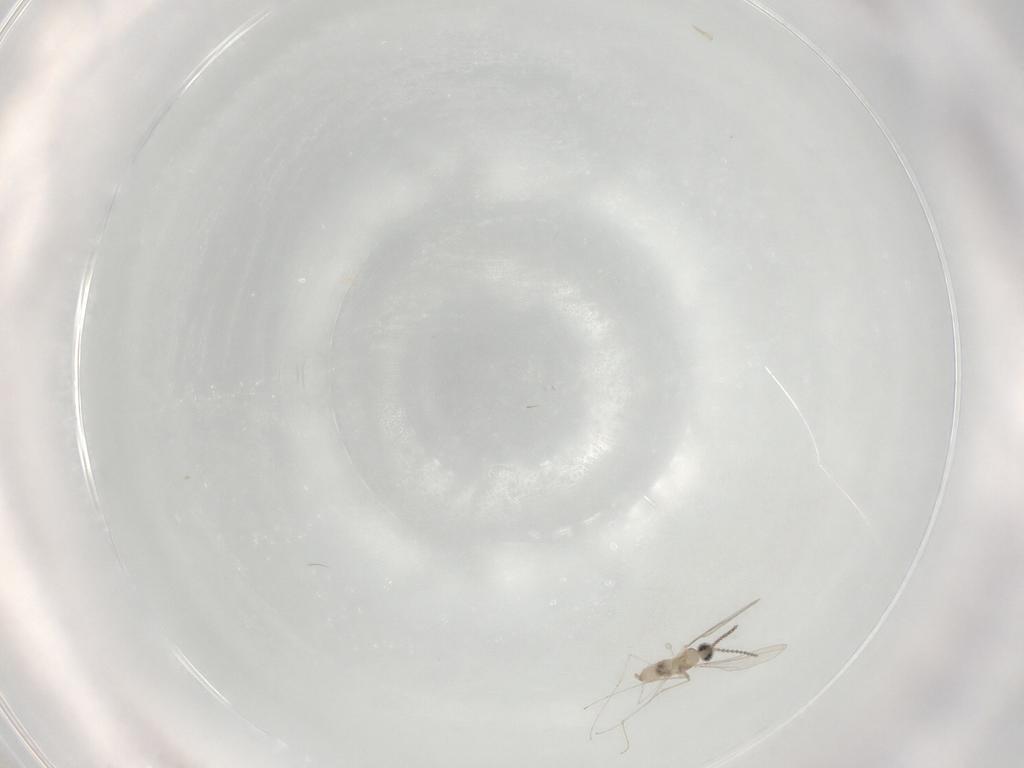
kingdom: Animalia
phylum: Arthropoda
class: Insecta
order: Diptera
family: Cecidomyiidae
